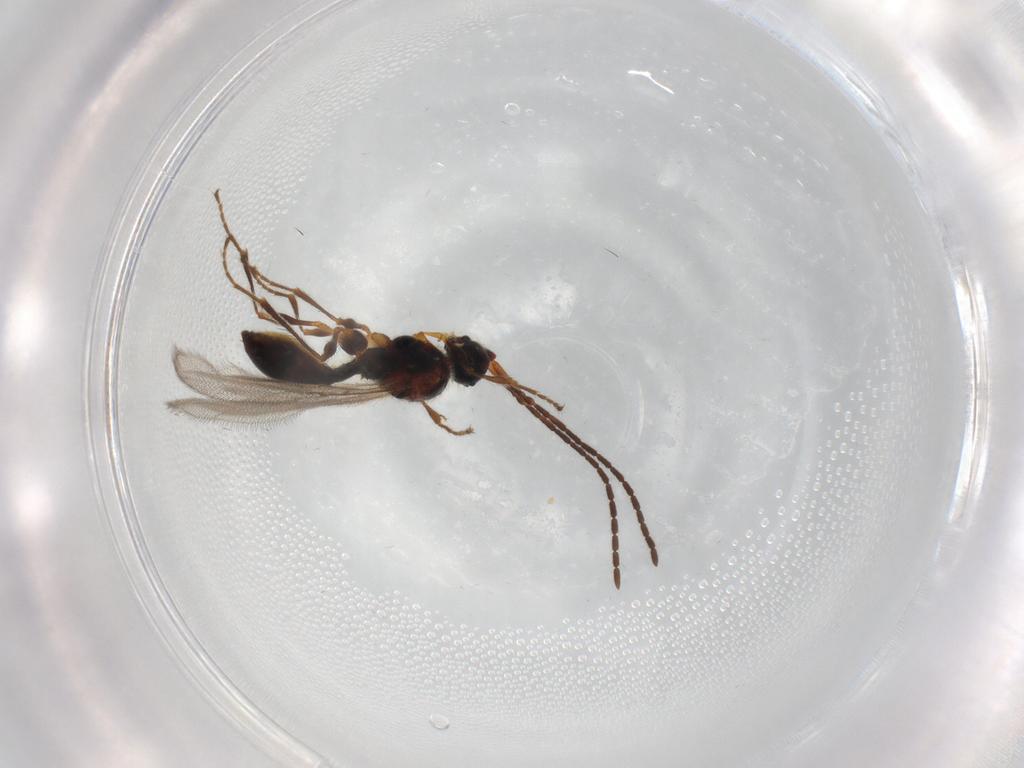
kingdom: Animalia
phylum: Arthropoda
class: Insecta
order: Hymenoptera
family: Diapriidae
